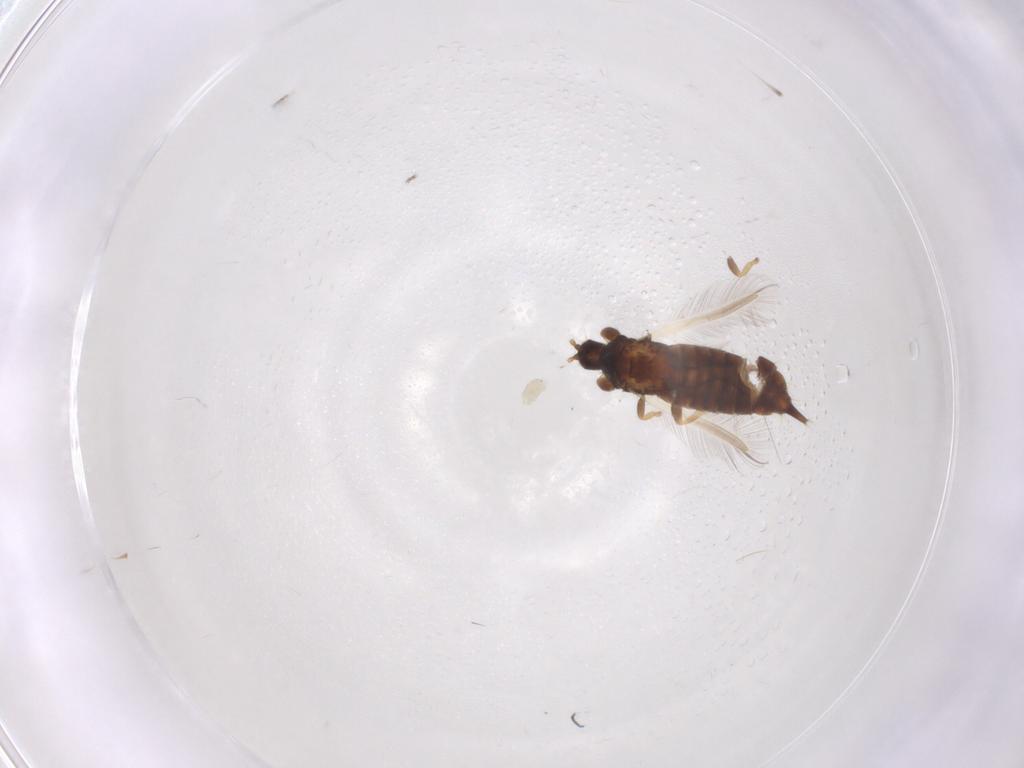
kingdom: Animalia
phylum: Arthropoda
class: Insecta
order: Thysanoptera
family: Phlaeothripidae
